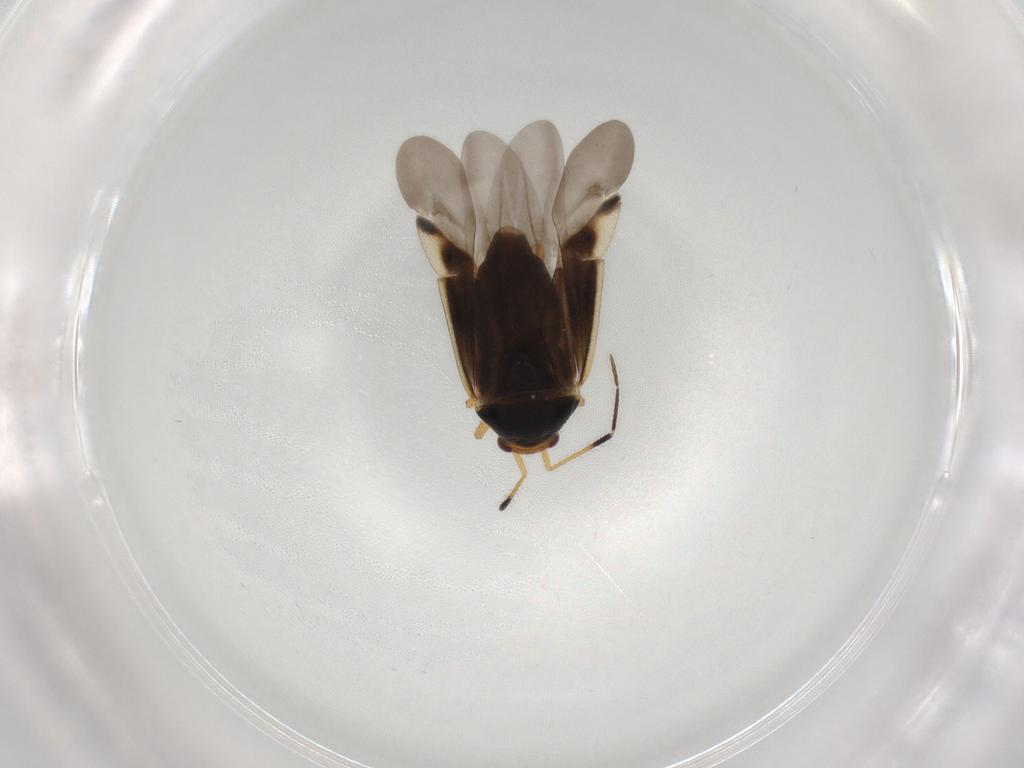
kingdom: Animalia
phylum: Arthropoda
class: Insecta
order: Hemiptera
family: Miridae
